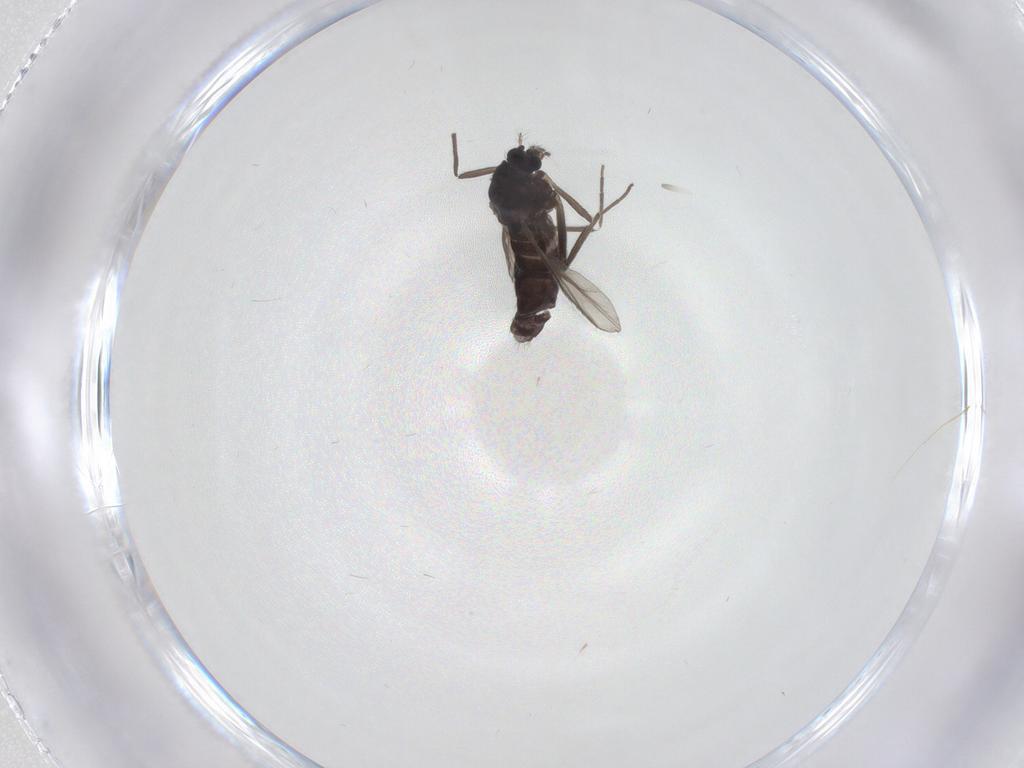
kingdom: Animalia
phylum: Arthropoda
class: Insecta
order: Diptera
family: Chironomidae
